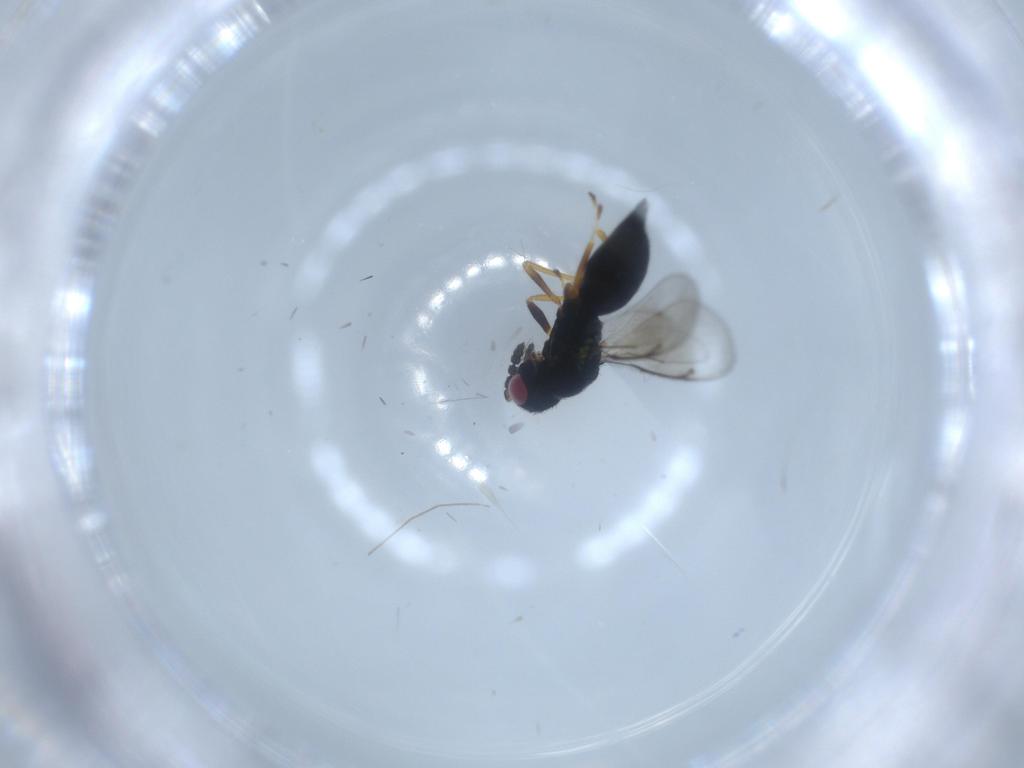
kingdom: Animalia
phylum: Arthropoda
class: Insecta
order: Hymenoptera
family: Eulophidae
